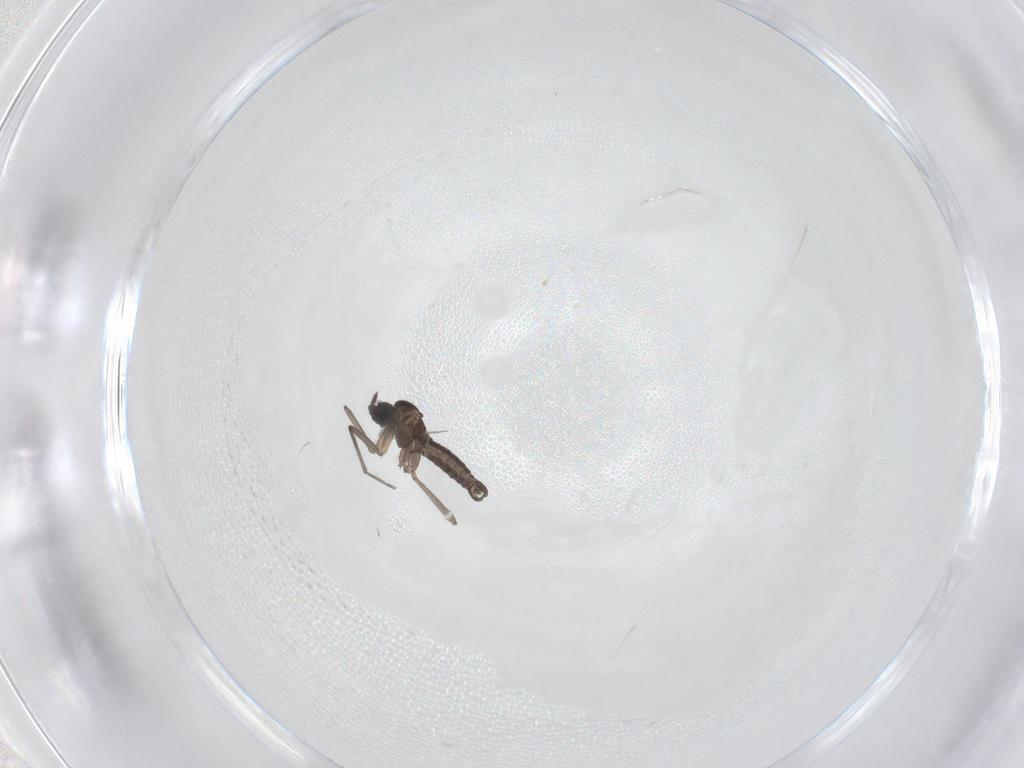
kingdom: Animalia
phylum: Arthropoda
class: Insecta
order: Diptera
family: Sciaridae
